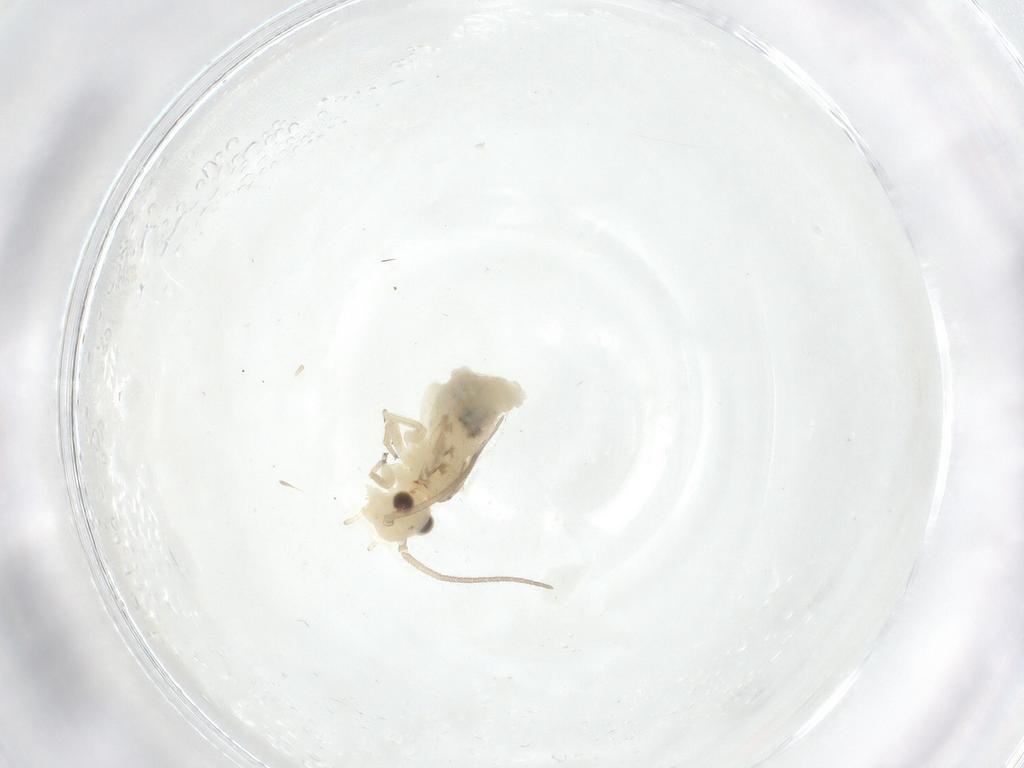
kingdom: Animalia
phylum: Arthropoda
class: Insecta
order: Psocodea
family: Caeciliusidae
